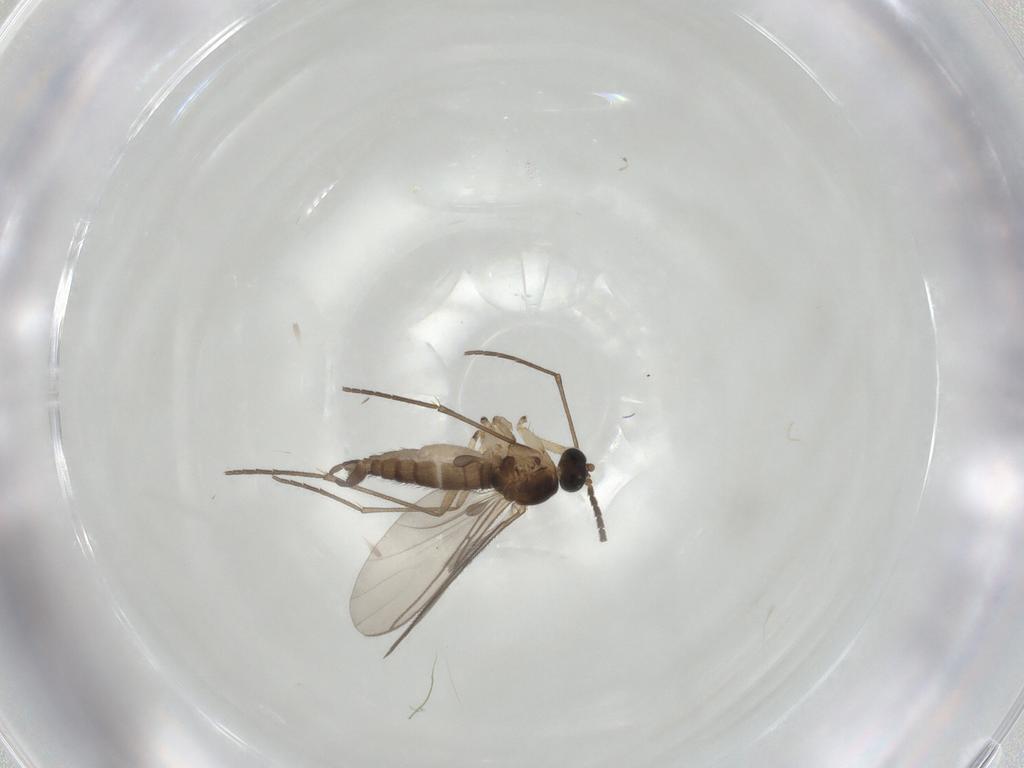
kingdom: Animalia
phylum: Arthropoda
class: Insecta
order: Diptera
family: Sciaridae
